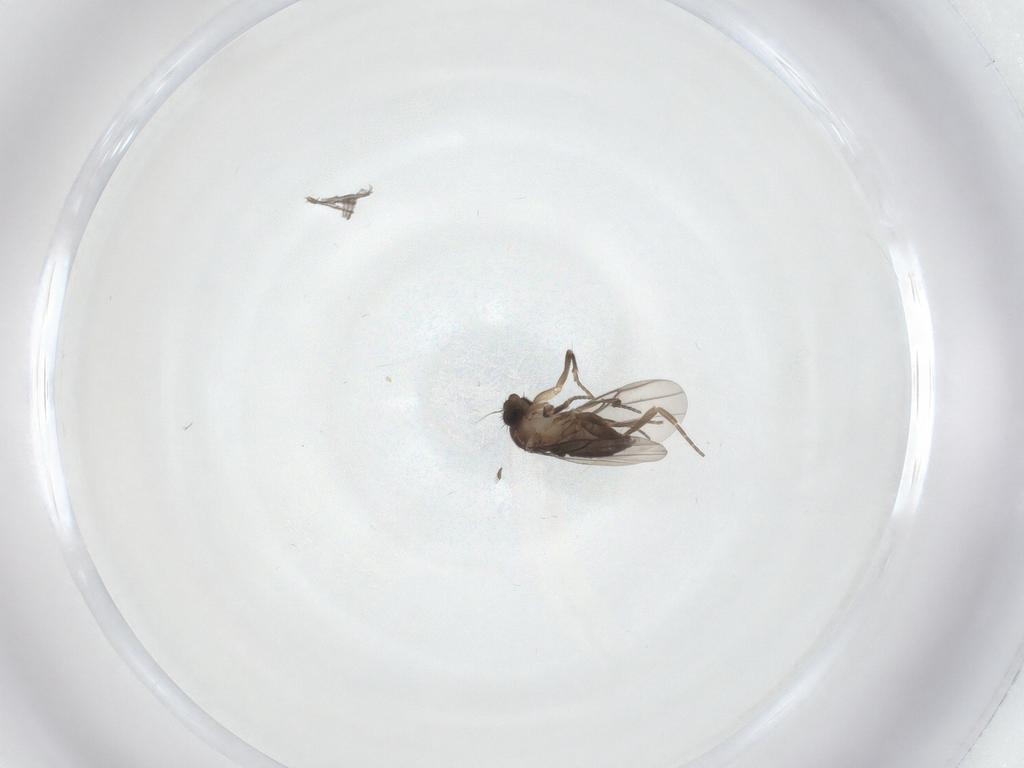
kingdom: Animalia
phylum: Arthropoda
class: Insecta
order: Diptera
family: Phoridae
